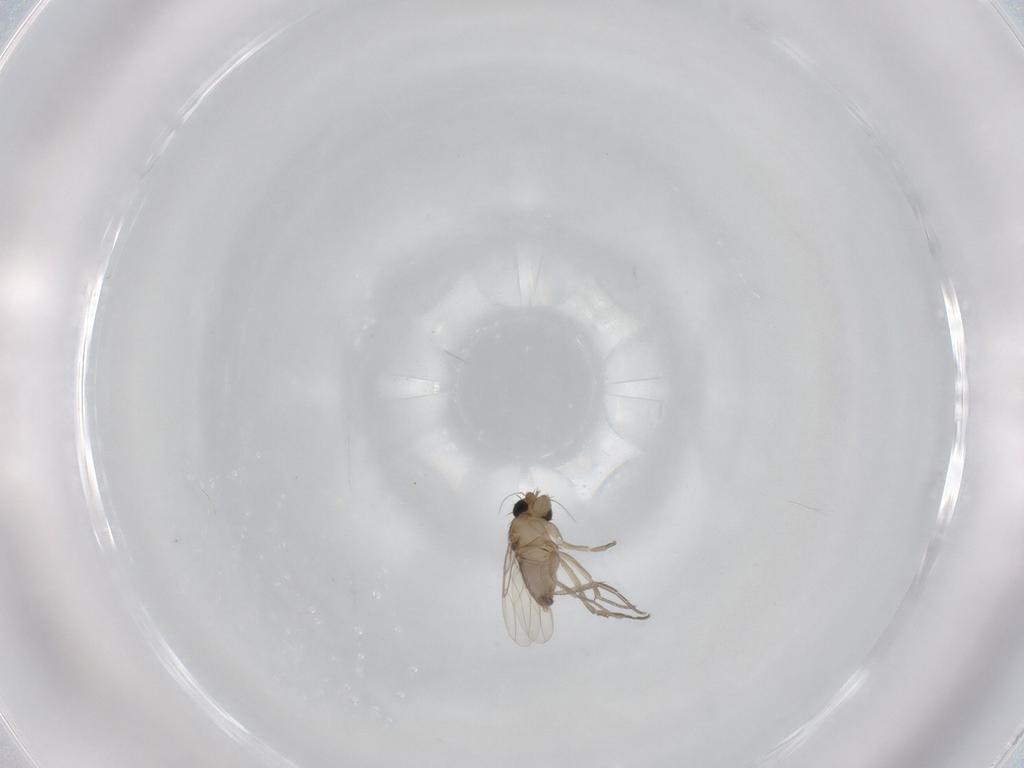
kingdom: Animalia
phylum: Arthropoda
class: Insecta
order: Diptera
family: Phoridae
